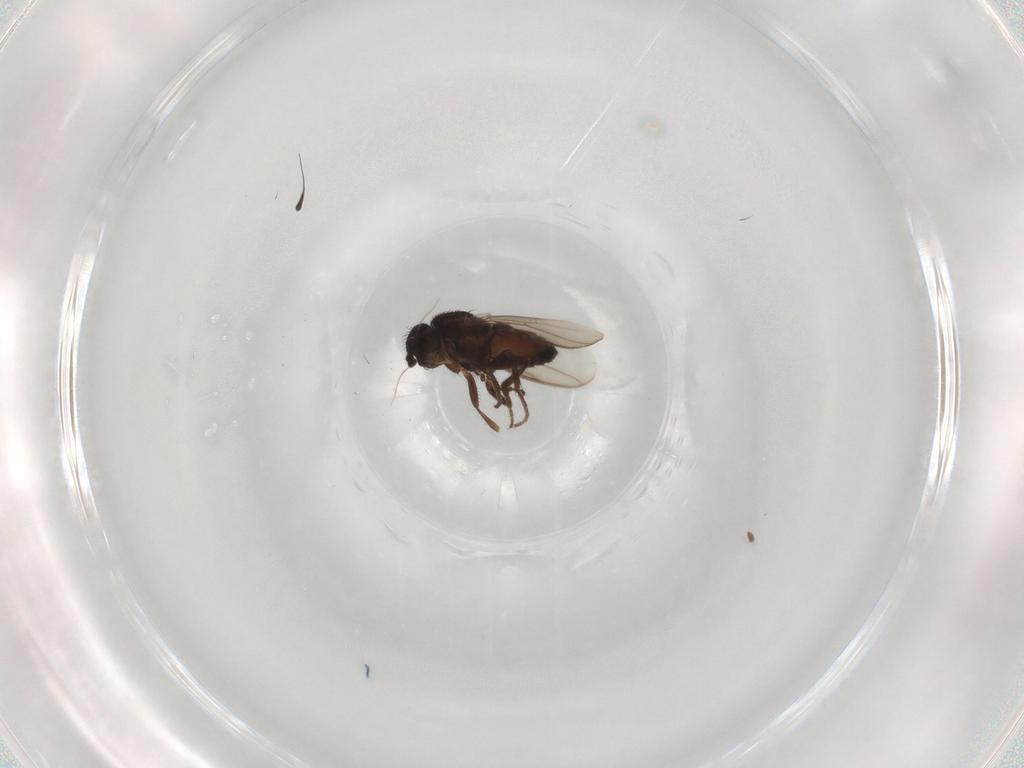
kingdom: Animalia
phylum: Arthropoda
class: Insecta
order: Diptera
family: Sphaeroceridae
